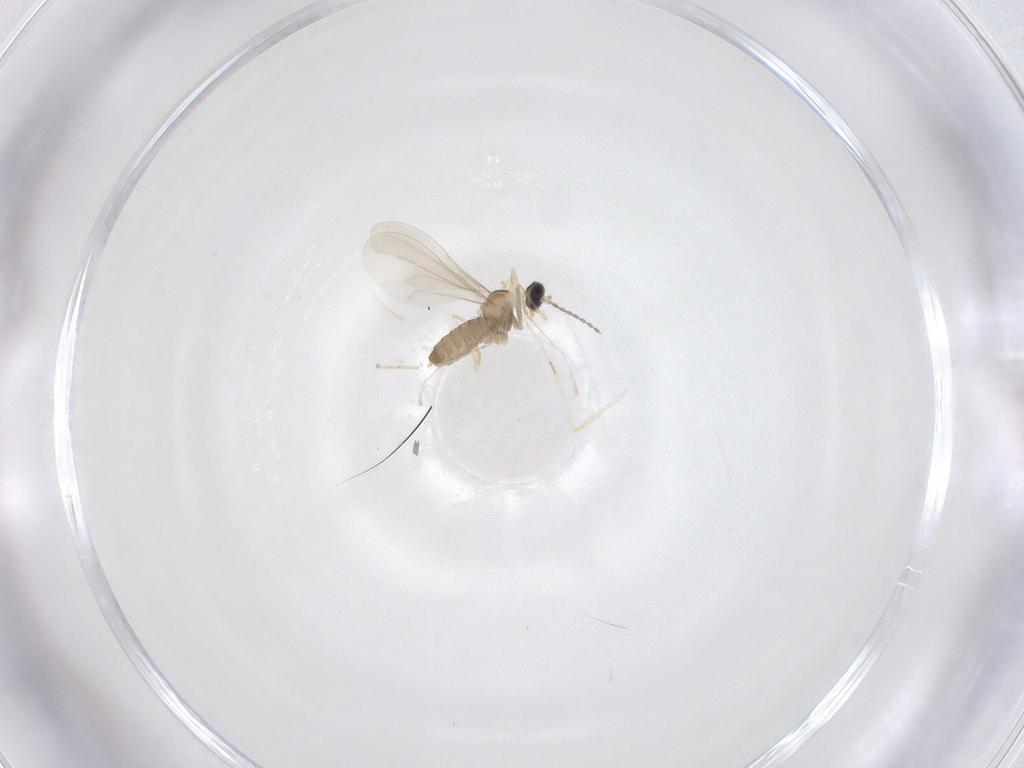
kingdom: Animalia
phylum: Arthropoda
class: Insecta
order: Diptera
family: Cecidomyiidae
